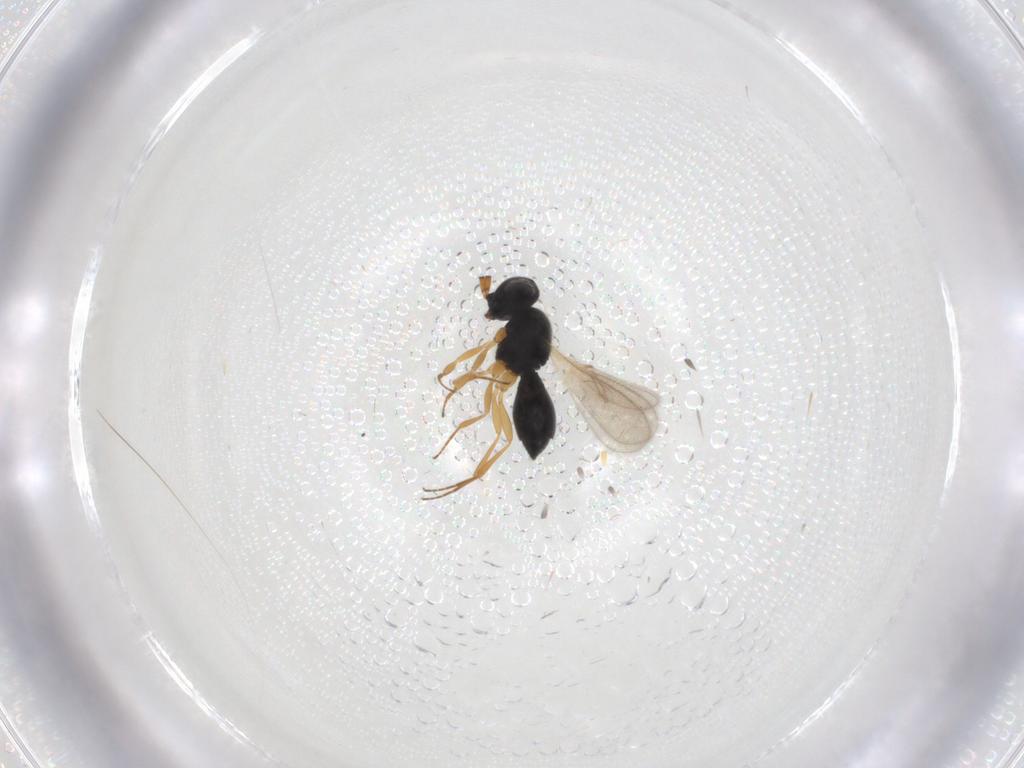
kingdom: Animalia
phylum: Arthropoda
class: Insecta
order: Hymenoptera
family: Scelionidae
